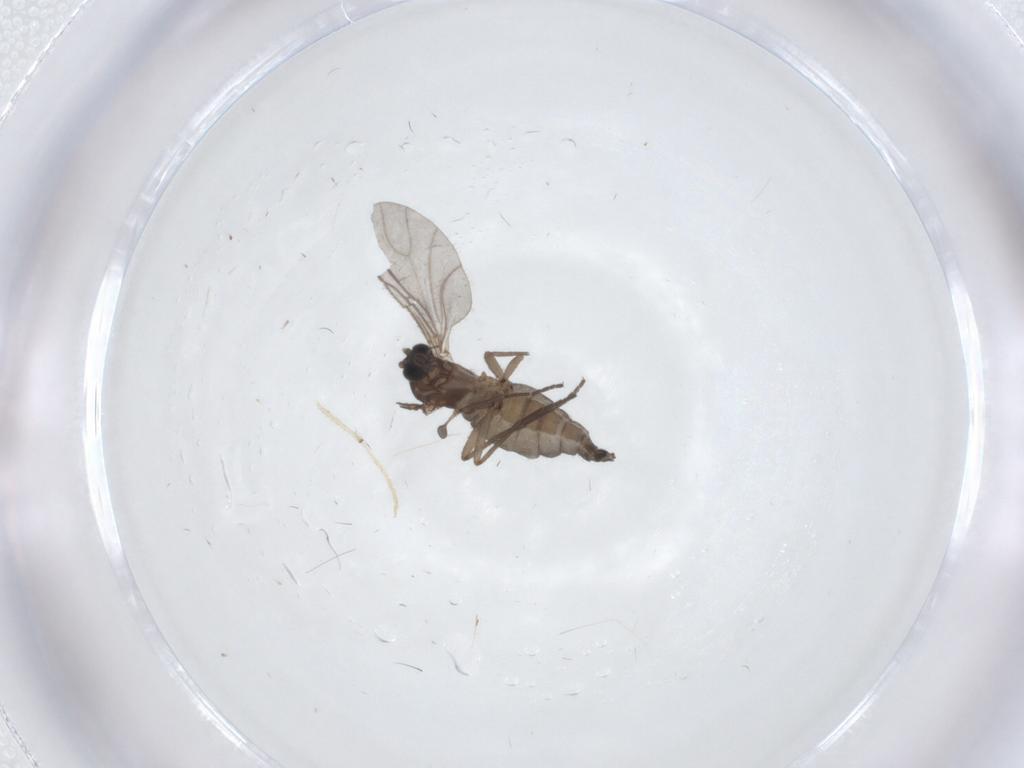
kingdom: Animalia
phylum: Arthropoda
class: Insecta
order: Diptera
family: Sciaridae
